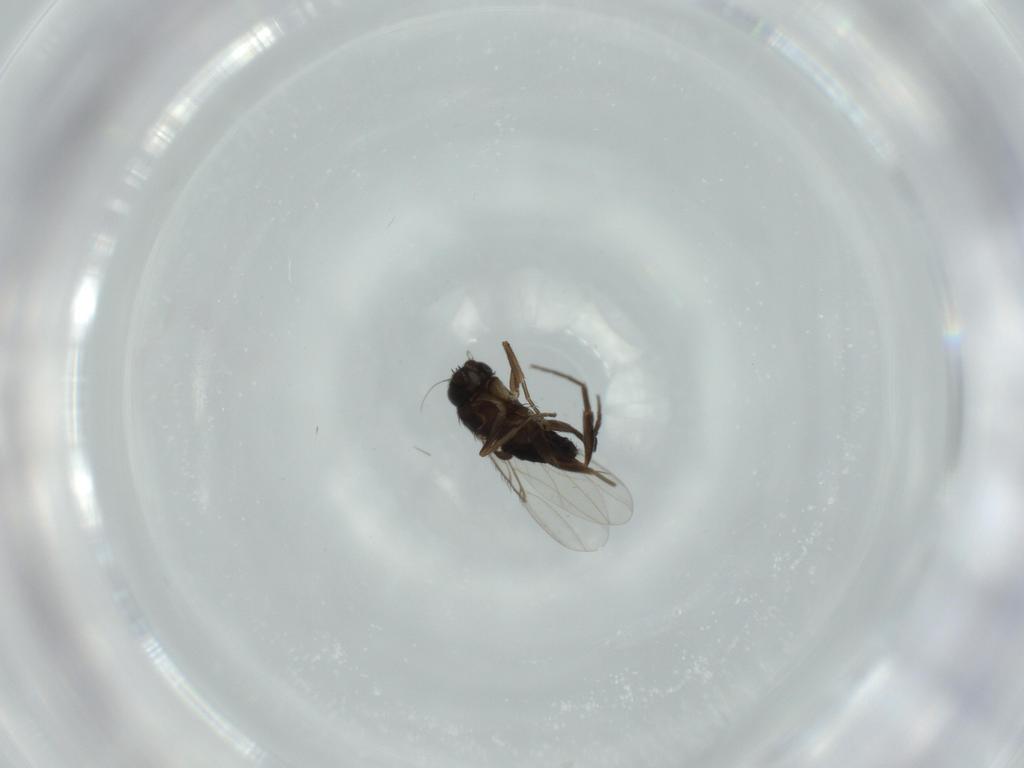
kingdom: Animalia
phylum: Arthropoda
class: Insecta
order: Diptera
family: Phoridae
